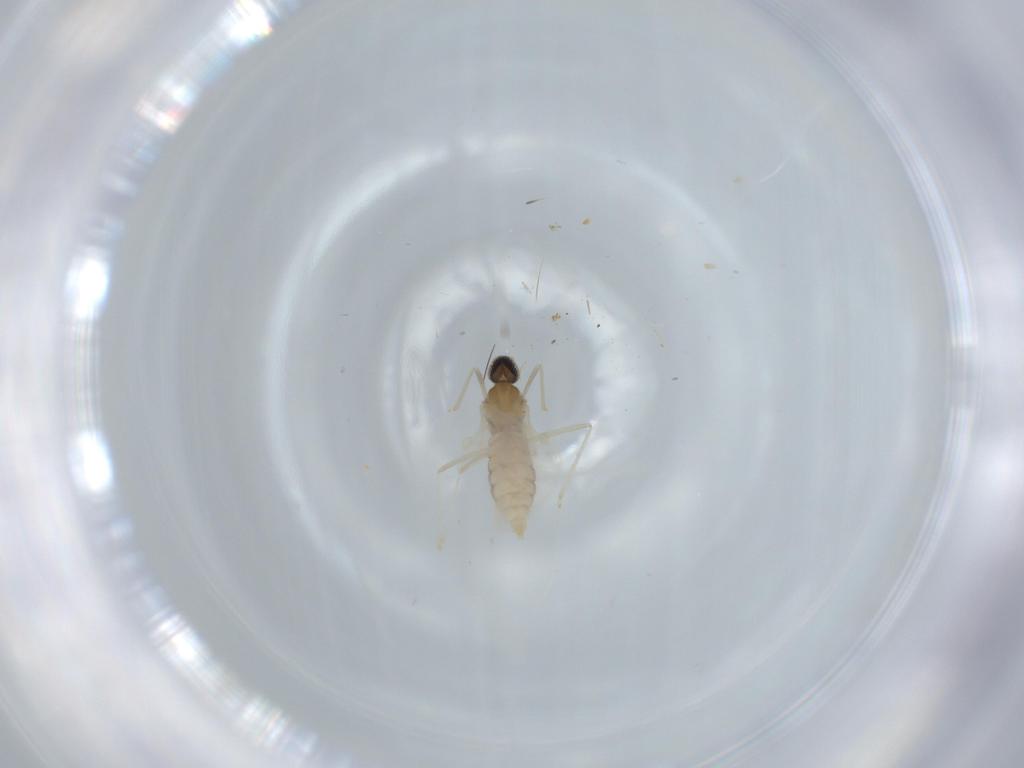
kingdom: Animalia
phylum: Arthropoda
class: Insecta
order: Diptera
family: Cecidomyiidae
